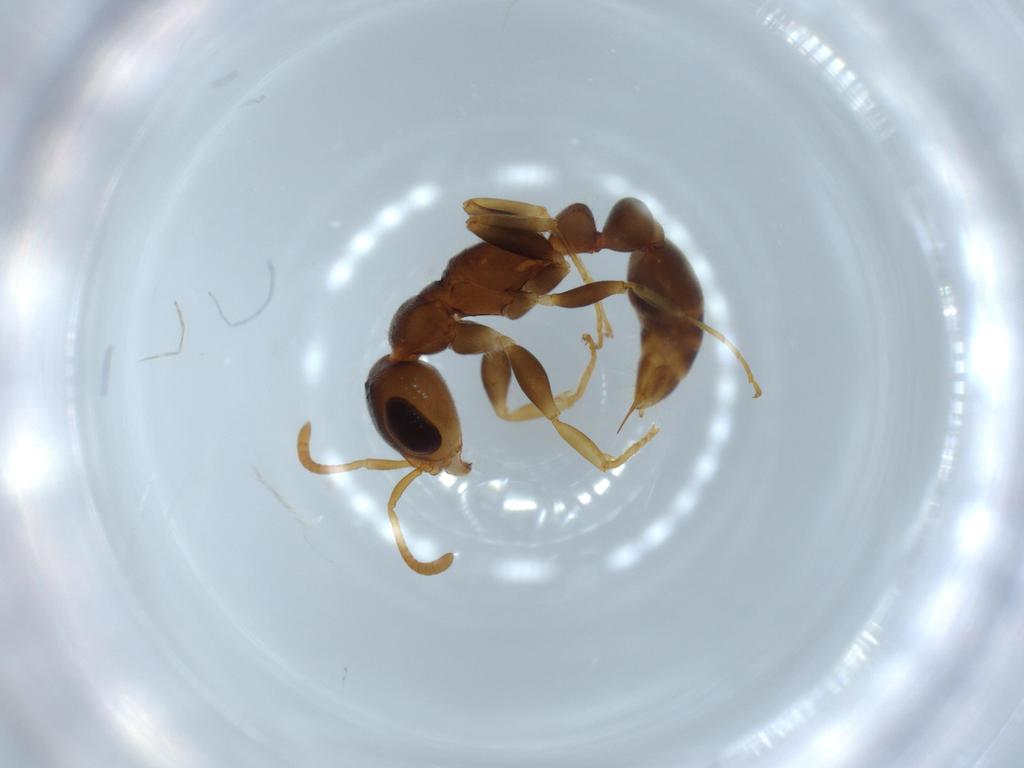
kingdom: Animalia
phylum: Arthropoda
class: Insecta
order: Hymenoptera
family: Formicidae
